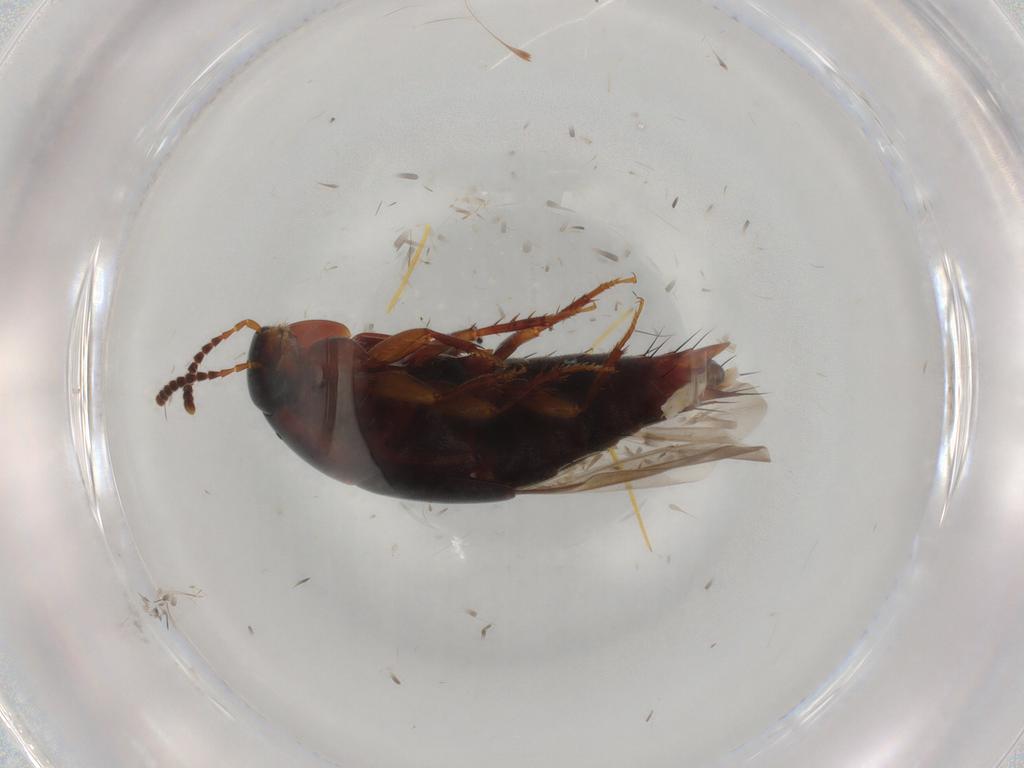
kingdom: Animalia
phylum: Arthropoda
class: Insecta
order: Coleoptera
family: Staphylinidae
